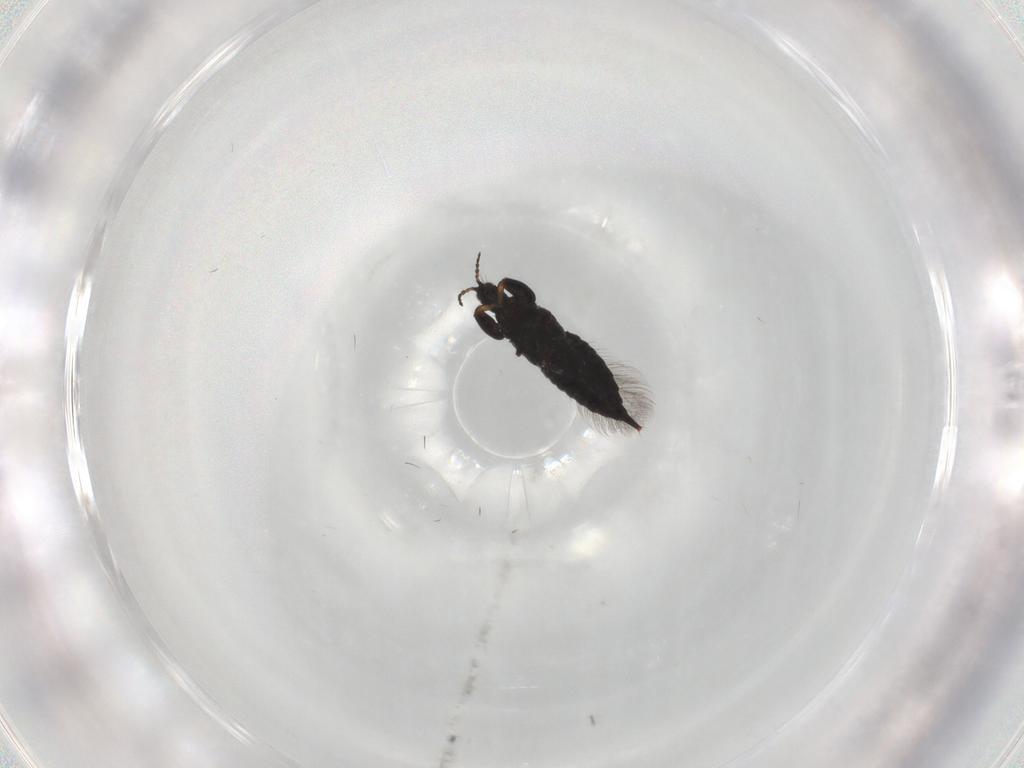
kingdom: Animalia
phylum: Arthropoda
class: Insecta
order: Thysanoptera
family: Phlaeothripidae
